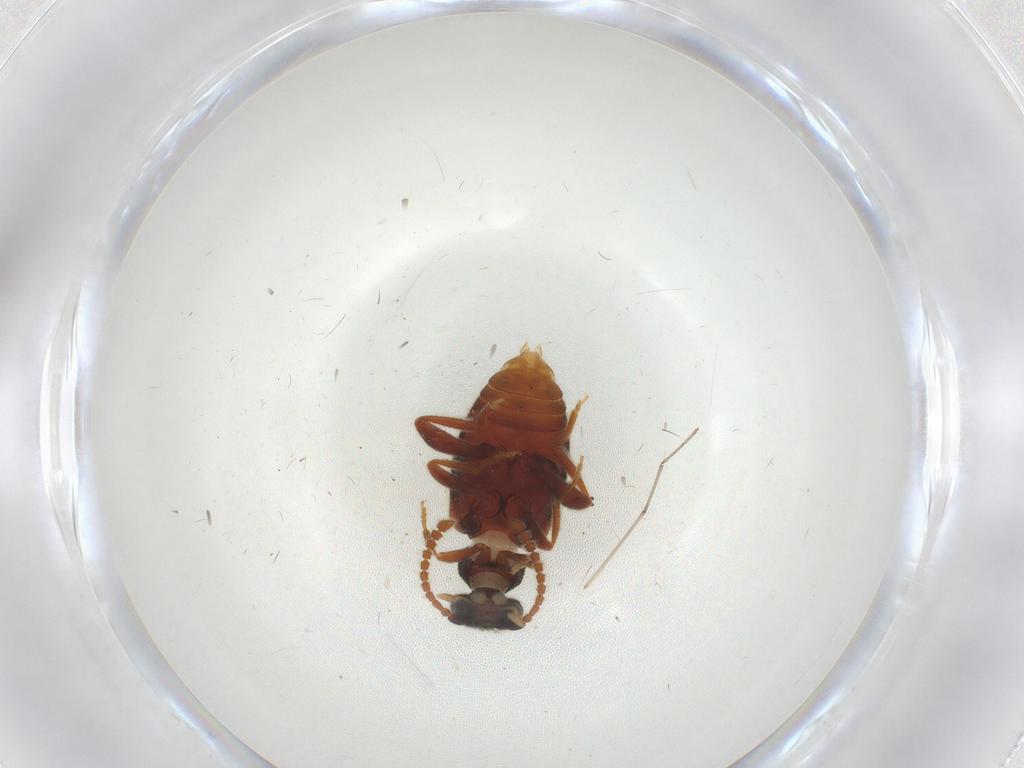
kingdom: Animalia
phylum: Arthropoda
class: Insecta
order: Coleoptera
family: Aderidae
